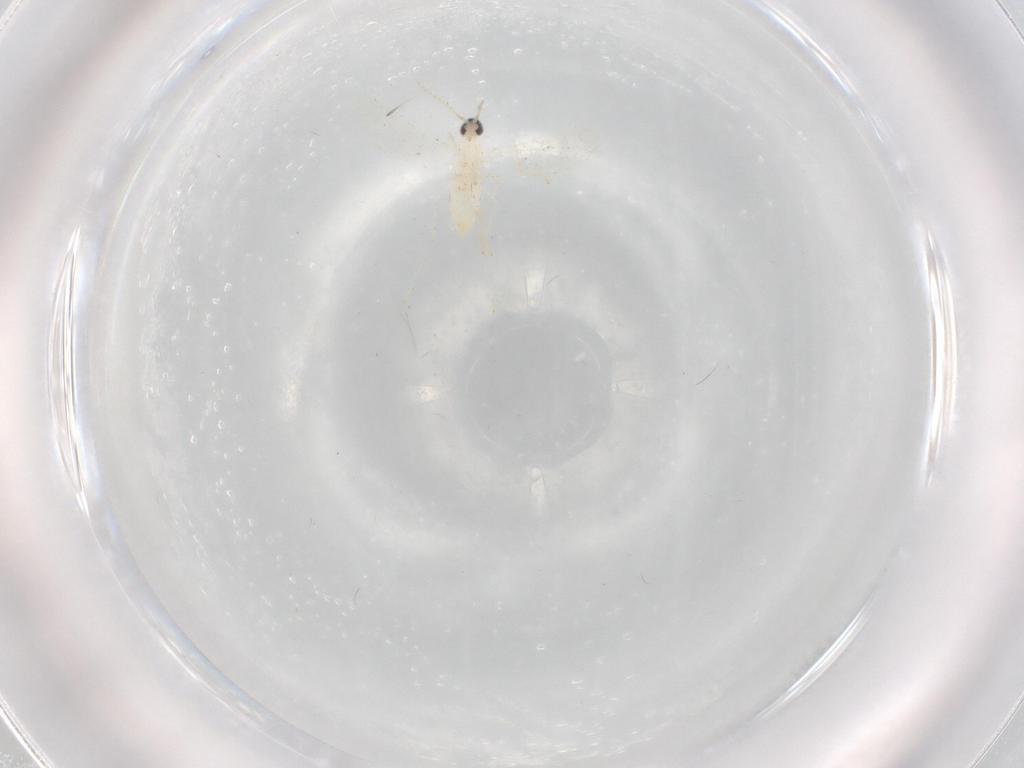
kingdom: Animalia
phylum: Arthropoda
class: Insecta
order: Diptera
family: Cecidomyiidae
